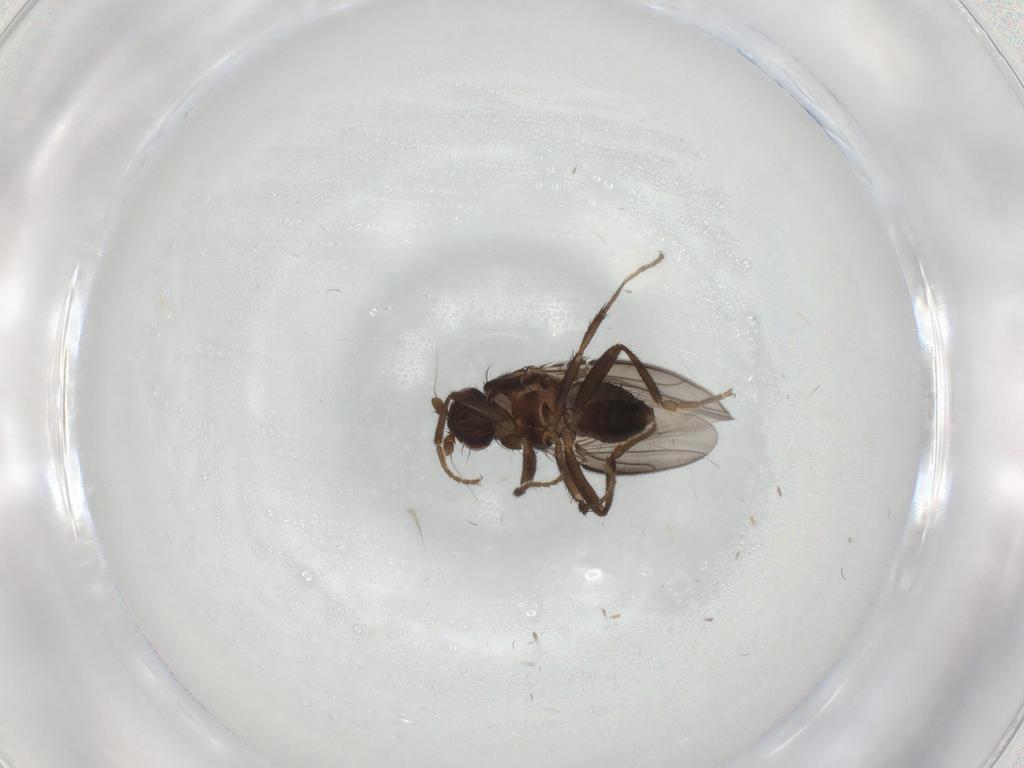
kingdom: Animalia
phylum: Arthropoda
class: Insecta
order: Diptera
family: Sphaeroceridae
